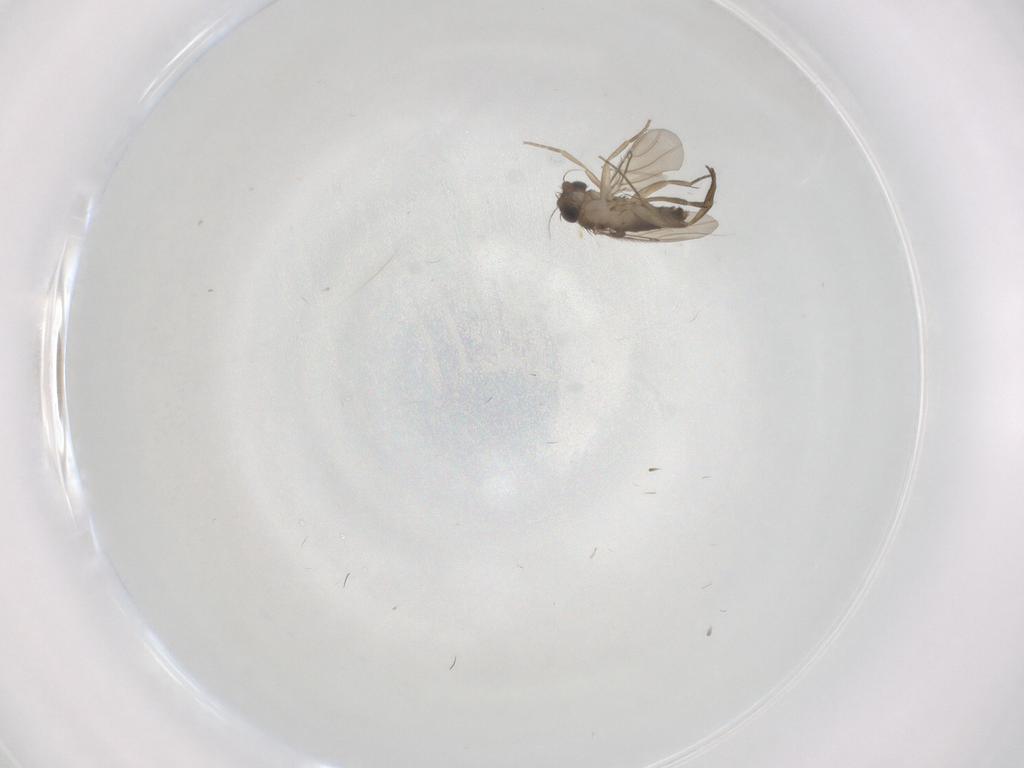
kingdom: Animalia
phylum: Arthropoda
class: Insecta
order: Diptera
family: Phoridae
